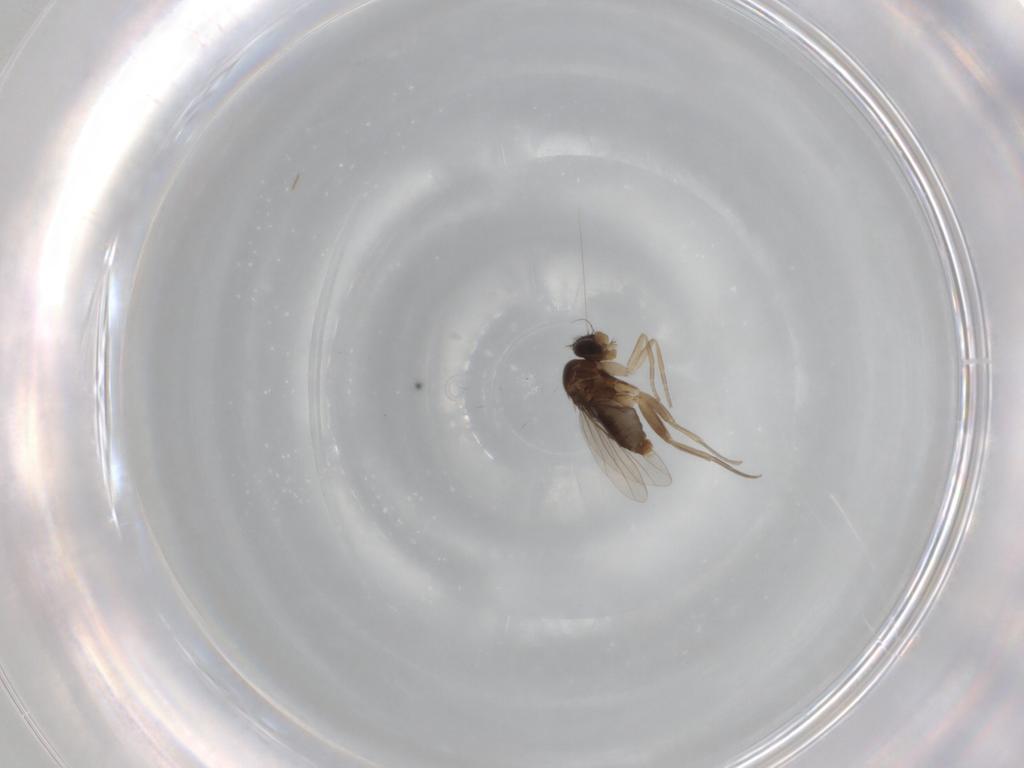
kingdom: Animalia
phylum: Arthropoda
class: Insecta
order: Diptera
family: Phoridae
